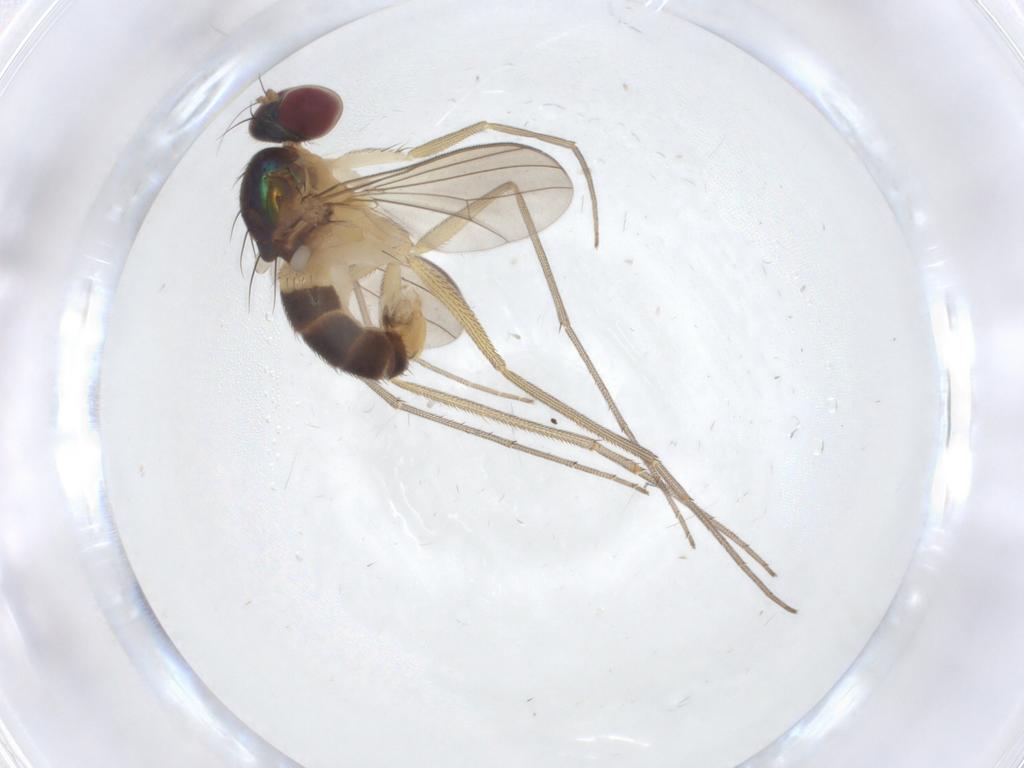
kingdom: Animalia
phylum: Arthropoda
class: Insecta
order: Diptera
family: Dolichopodidae
